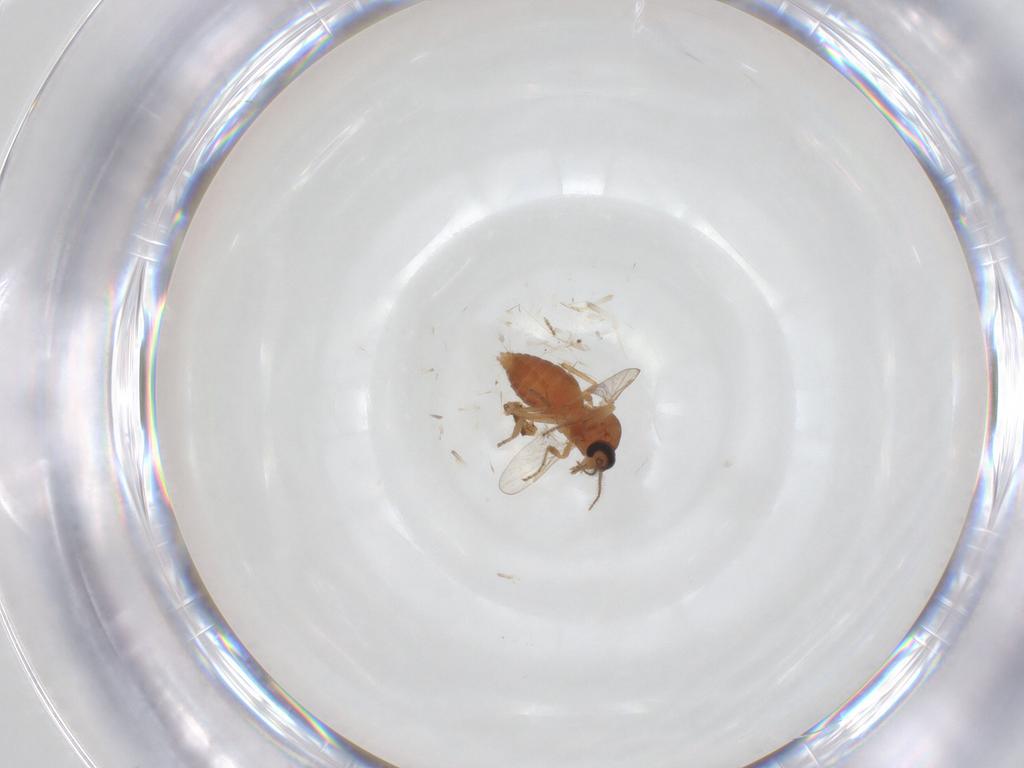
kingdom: Animalia
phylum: Arthropoda
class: Insecta
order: Diptera
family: Ceratopogonidae
